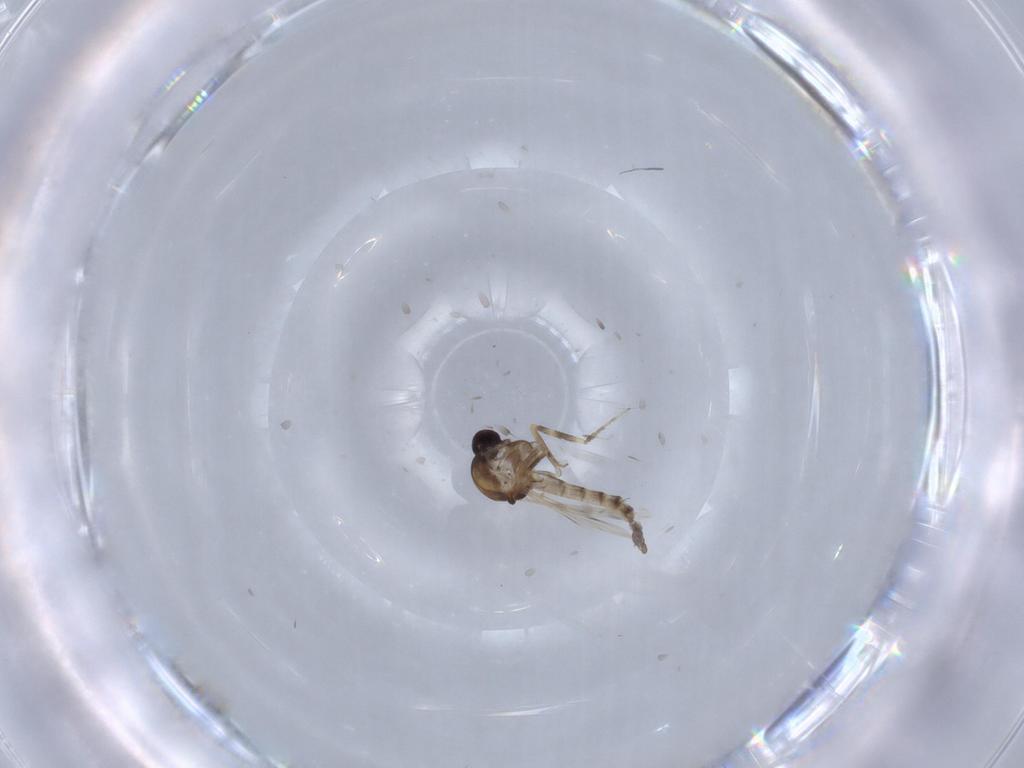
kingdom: Animalia
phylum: Arthropoda
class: Insecta
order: Diptera
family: Ceratopogonidae
